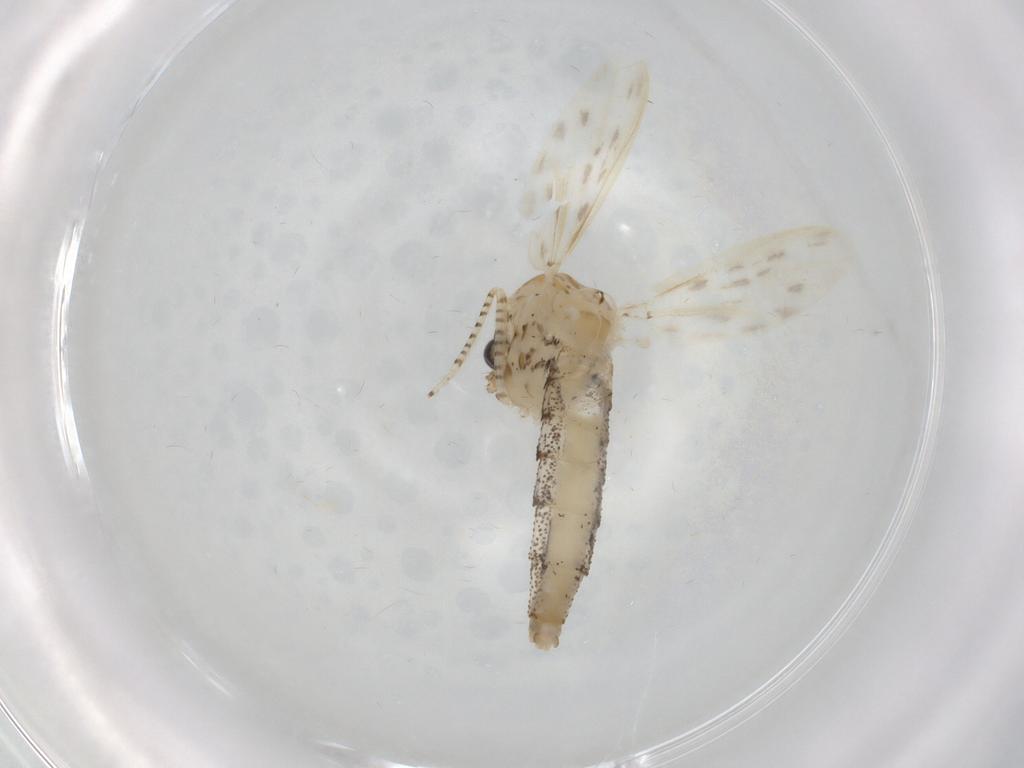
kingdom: Animalia
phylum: Arthropoda
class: Insecta
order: Diptera
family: Chaoboridae
